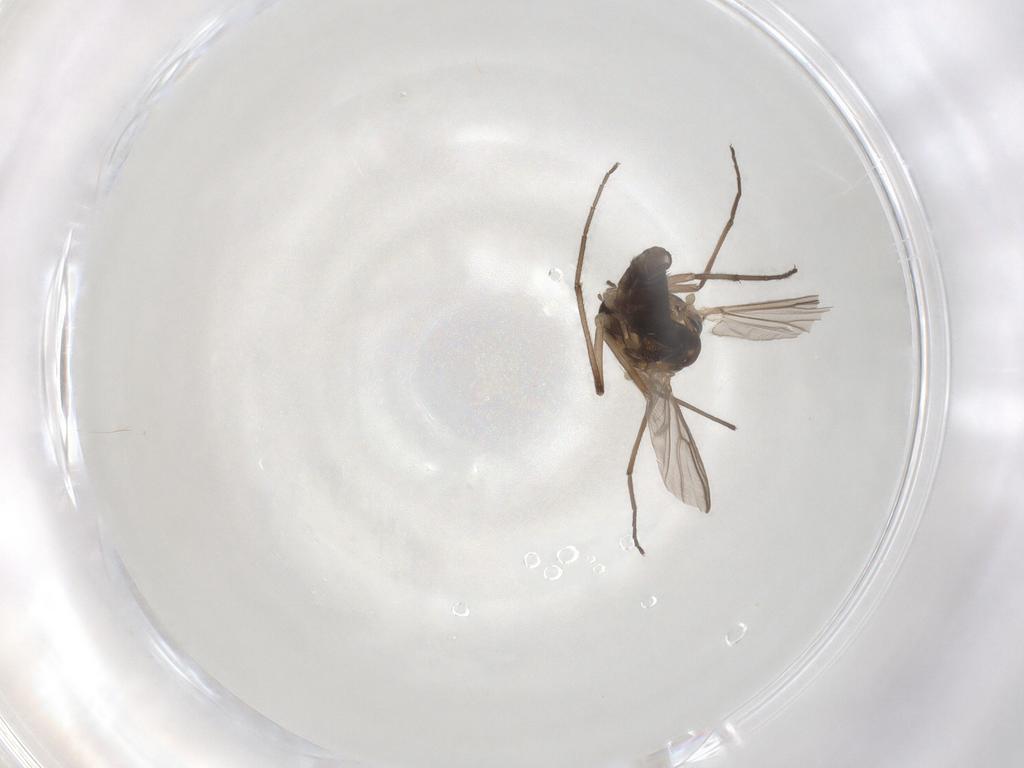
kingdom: Animalia
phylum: Arthropoda
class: Insecta
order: Diptera
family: Chironomidae
